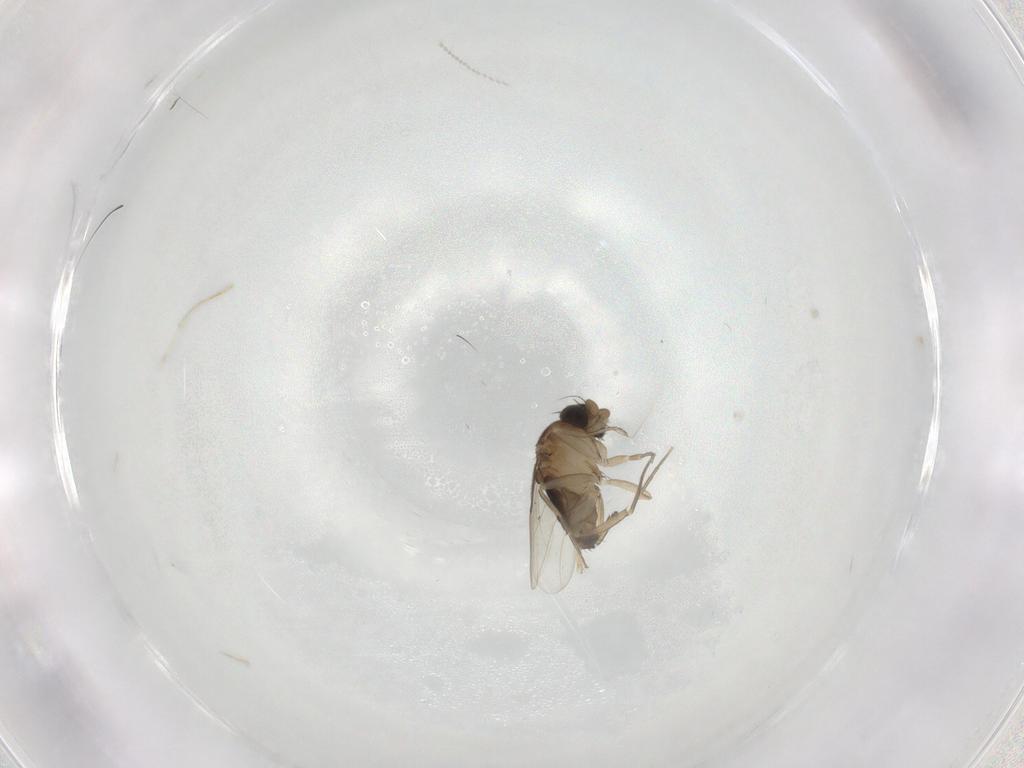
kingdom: Animalia
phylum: Arthropoda
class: Insecta
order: Diptera
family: Phoridae
